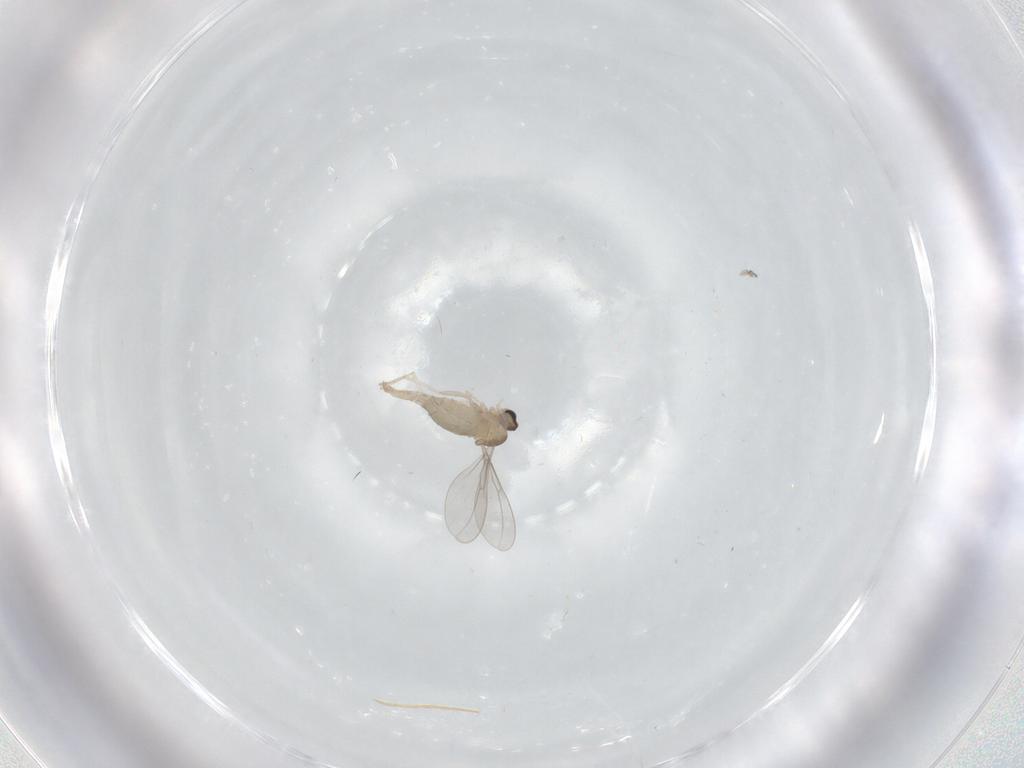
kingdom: Animalia
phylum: Arthropoda
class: Insecta
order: Diptera
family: Cecidomyiidae
